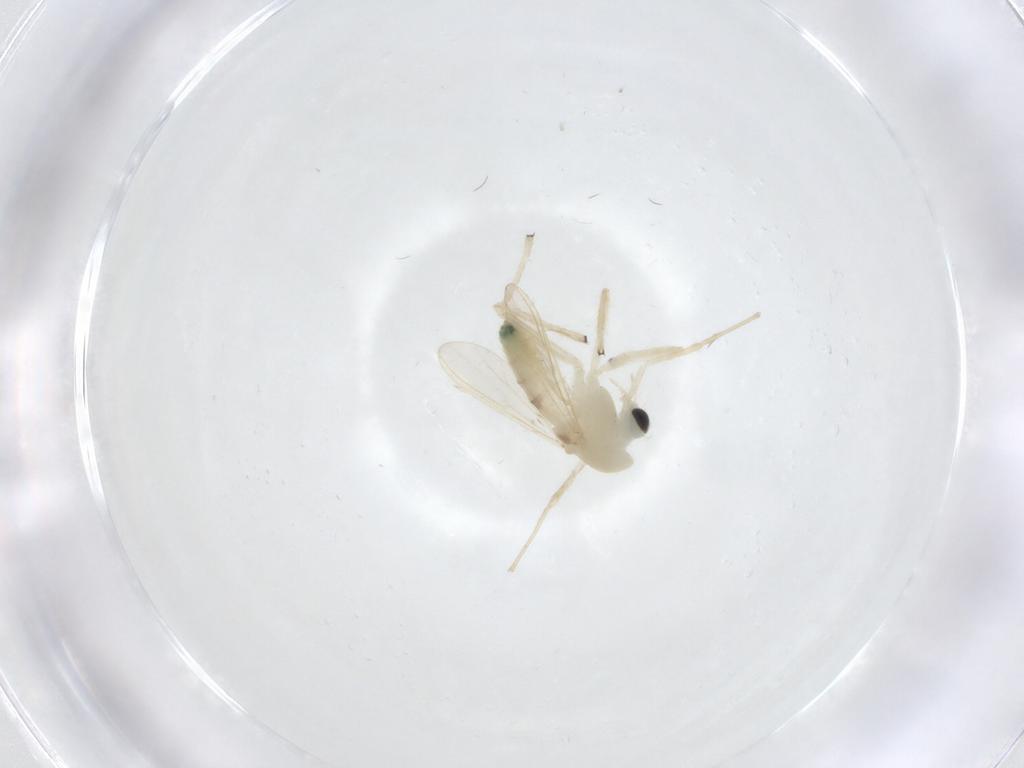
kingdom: Animalia
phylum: Arthropoda
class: Insecta
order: Diptera
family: Chironomidae
